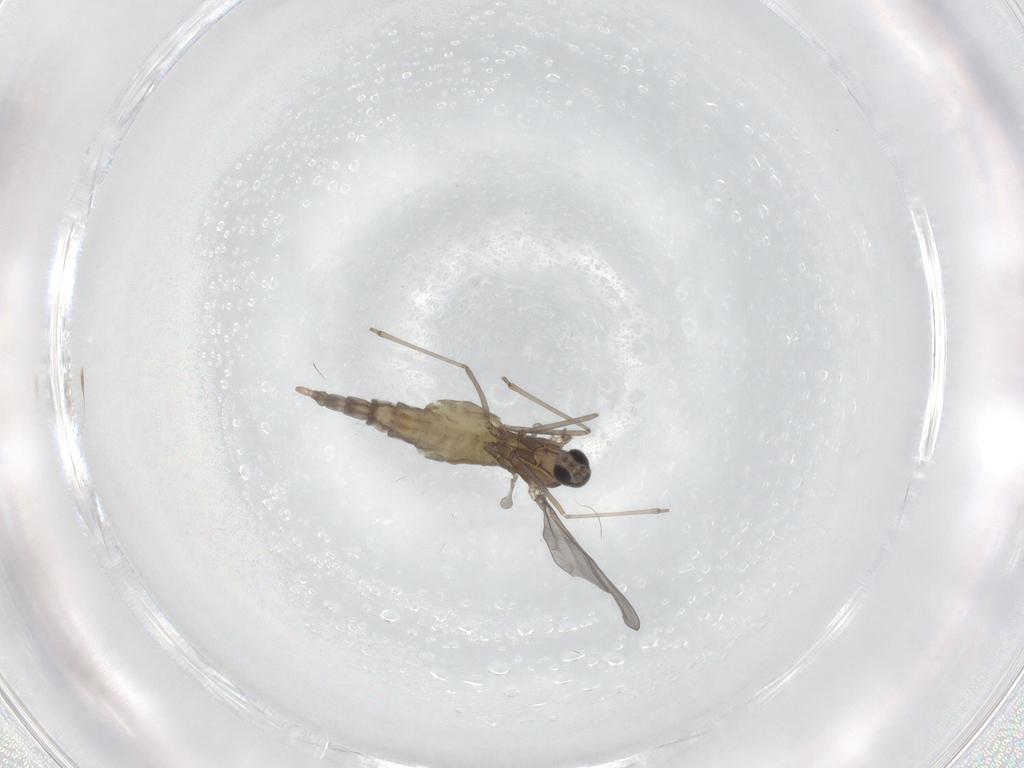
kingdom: Animalia
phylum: Arthropoda
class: Insecta
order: Diptera
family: Cecidomyiidae
